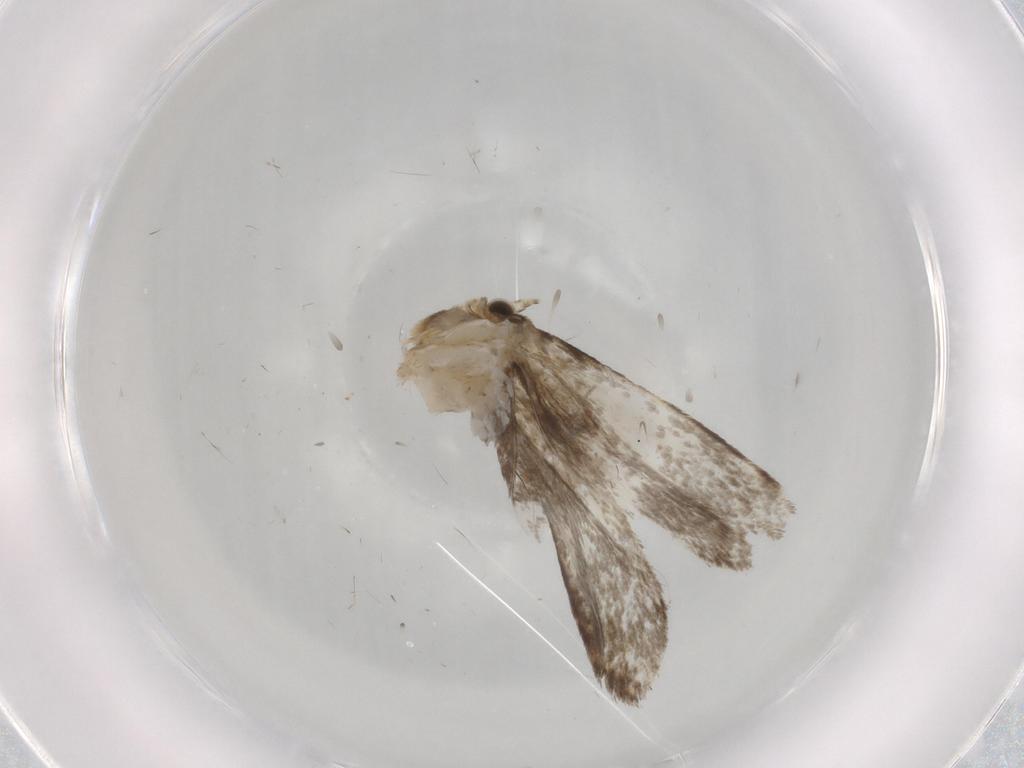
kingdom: Animalia
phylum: Arthropoda
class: Insecta
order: Lepidoptera
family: Tineidae
